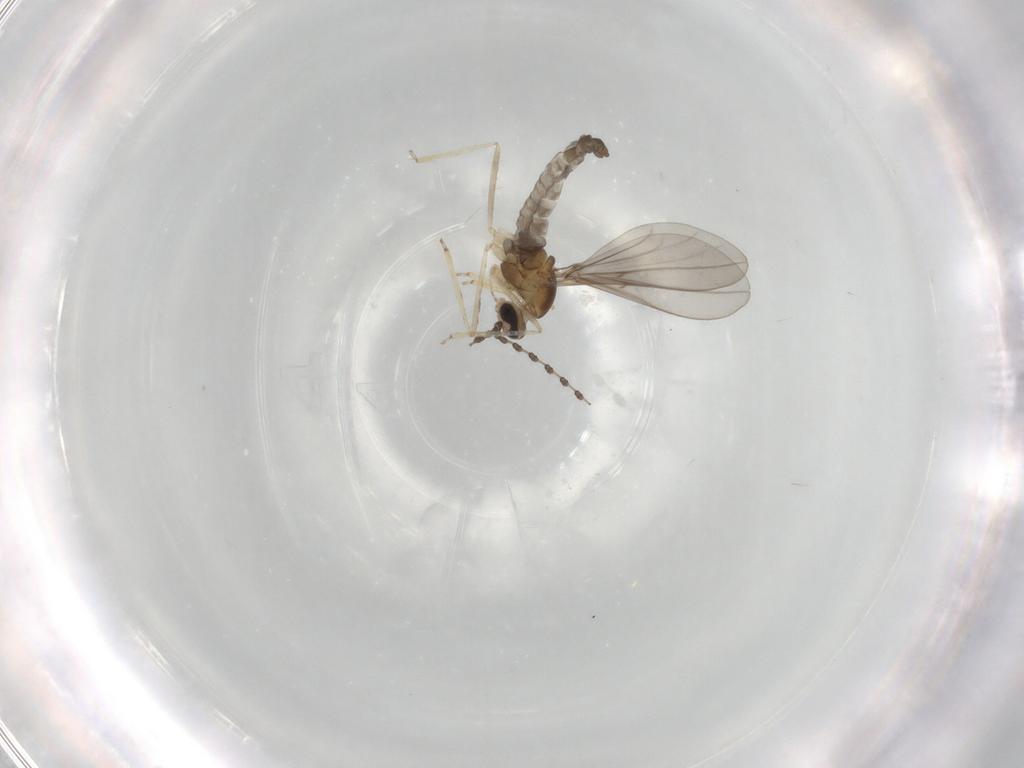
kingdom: Animalia
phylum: Arthropoda
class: Insecta
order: Diptera
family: Cecidomyiidae
